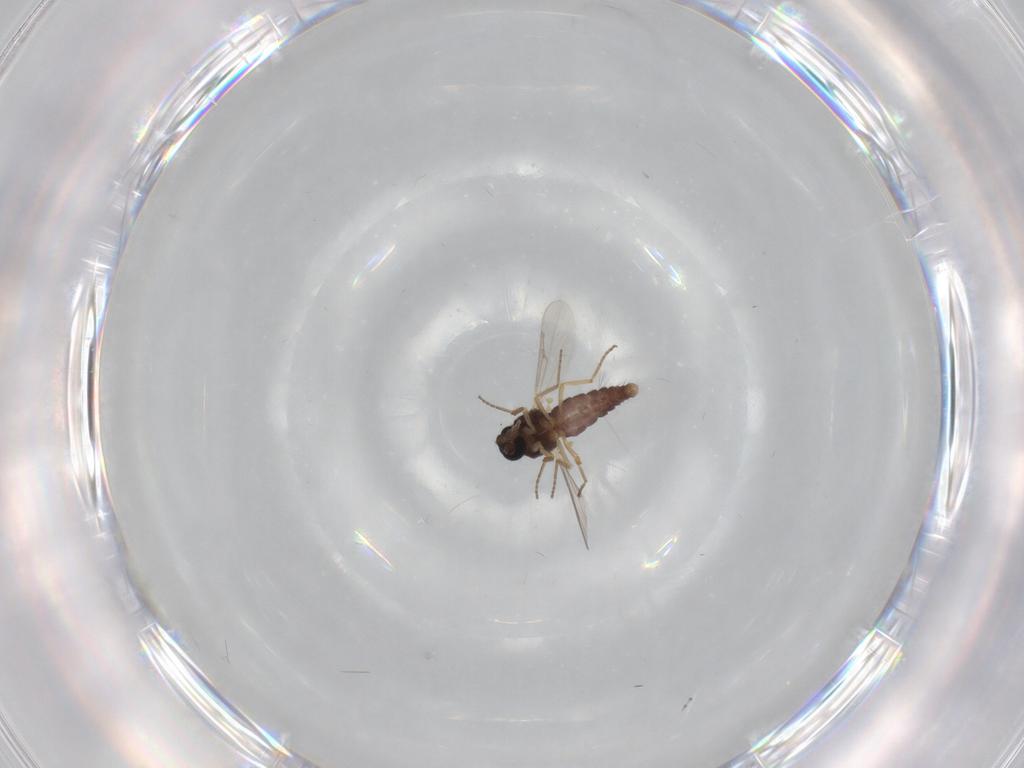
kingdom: Animalia
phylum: Arthropoda
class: Insecta
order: Diptera
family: Ceratopogonidae
